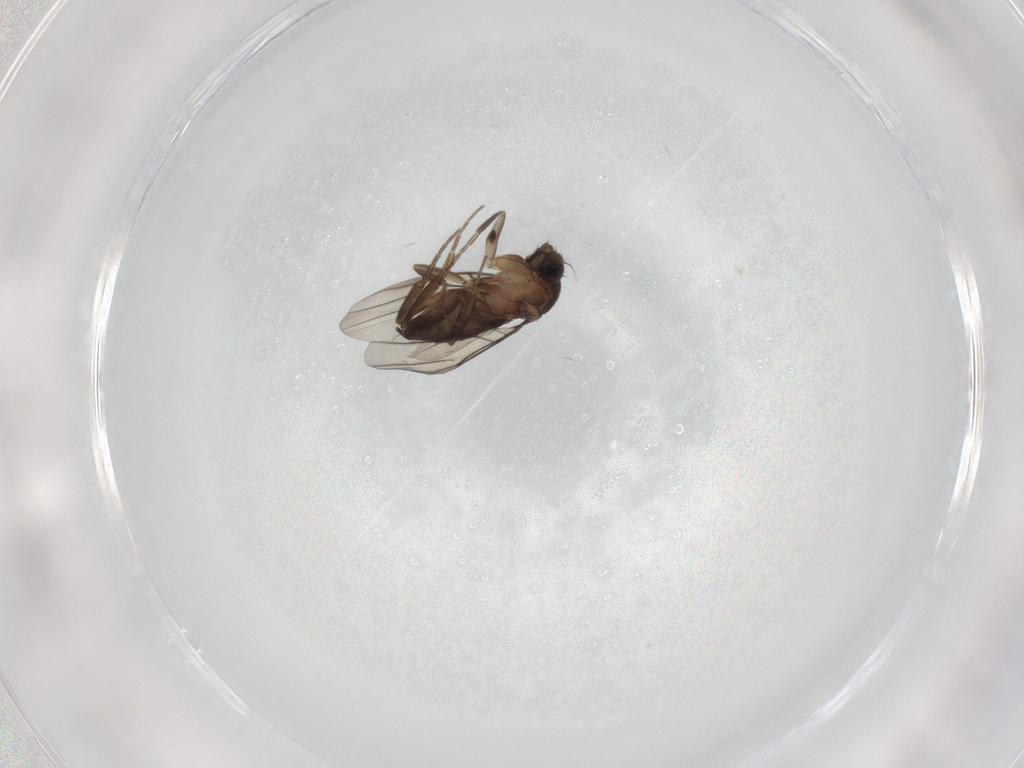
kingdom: Animalia
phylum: Arthropoda
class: Insecta
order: Diptera
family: Phoridae
